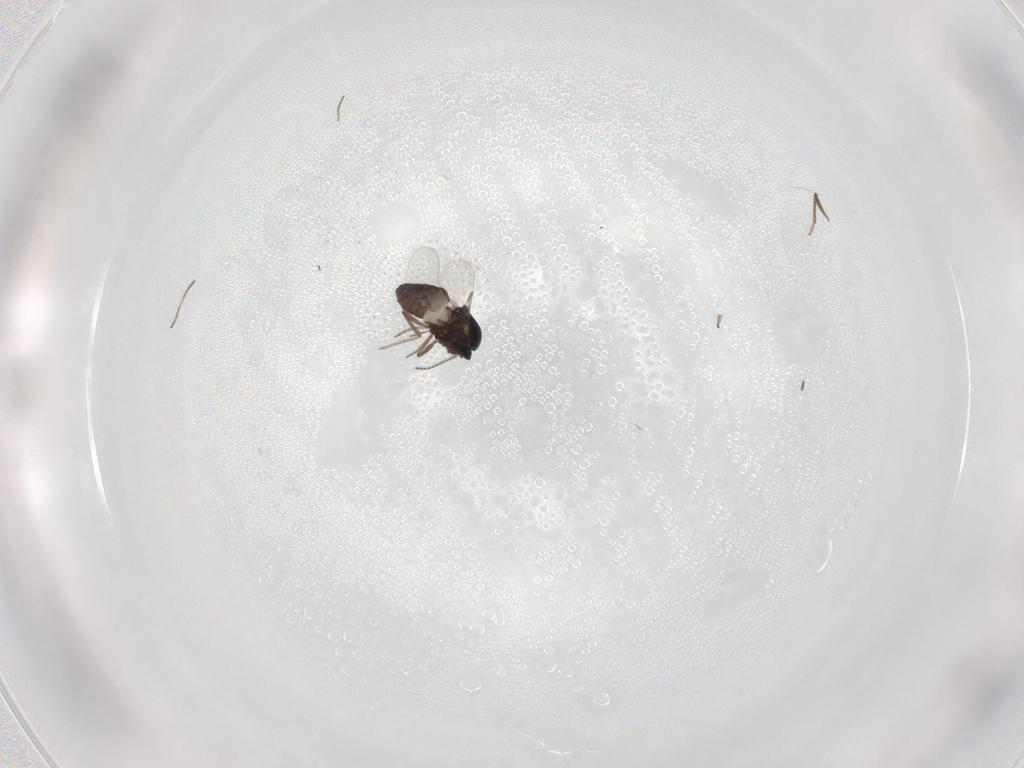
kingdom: Animalia
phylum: Arthropoda
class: Insecta
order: Diptera
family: Ceratopogonidae
